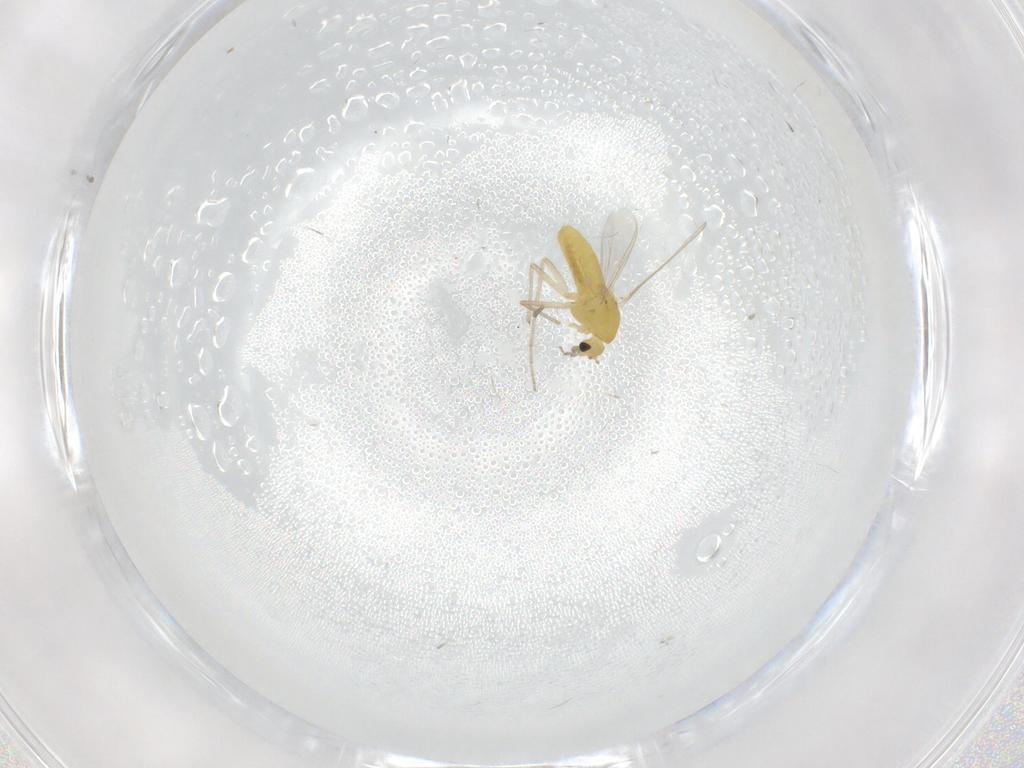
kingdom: Animalia
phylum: Arthropoda
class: Insecta
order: Diptera
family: Chironomidae
